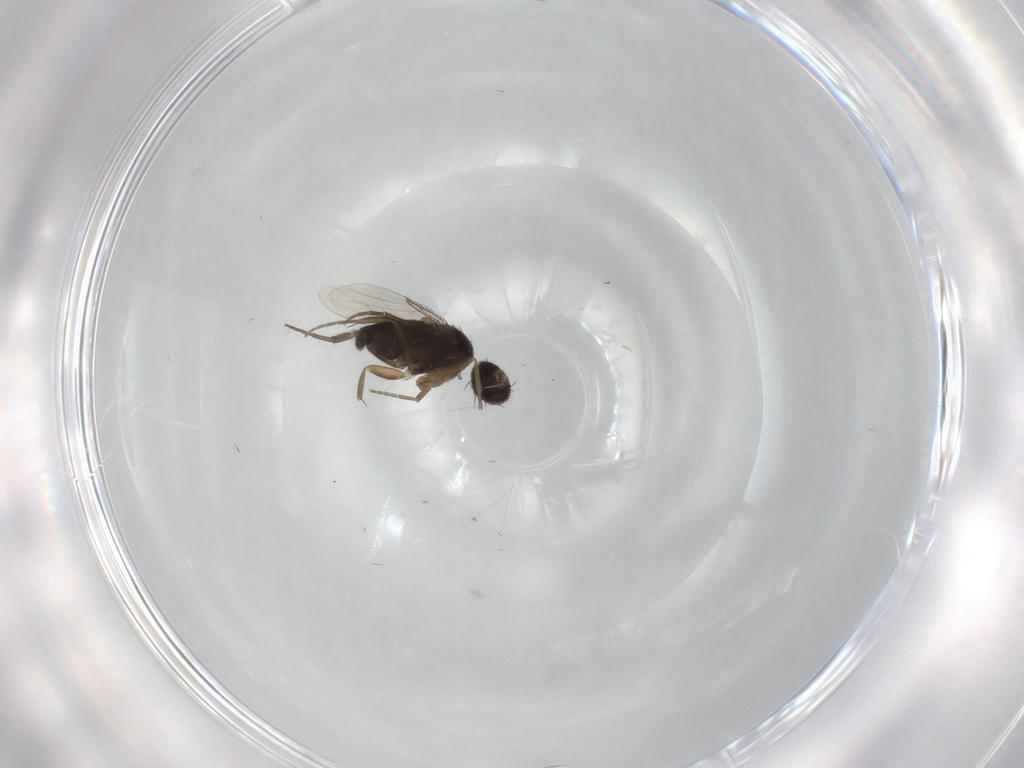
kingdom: Animalia
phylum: Arthropoda
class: Insecta
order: Diptera
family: Phoridae
